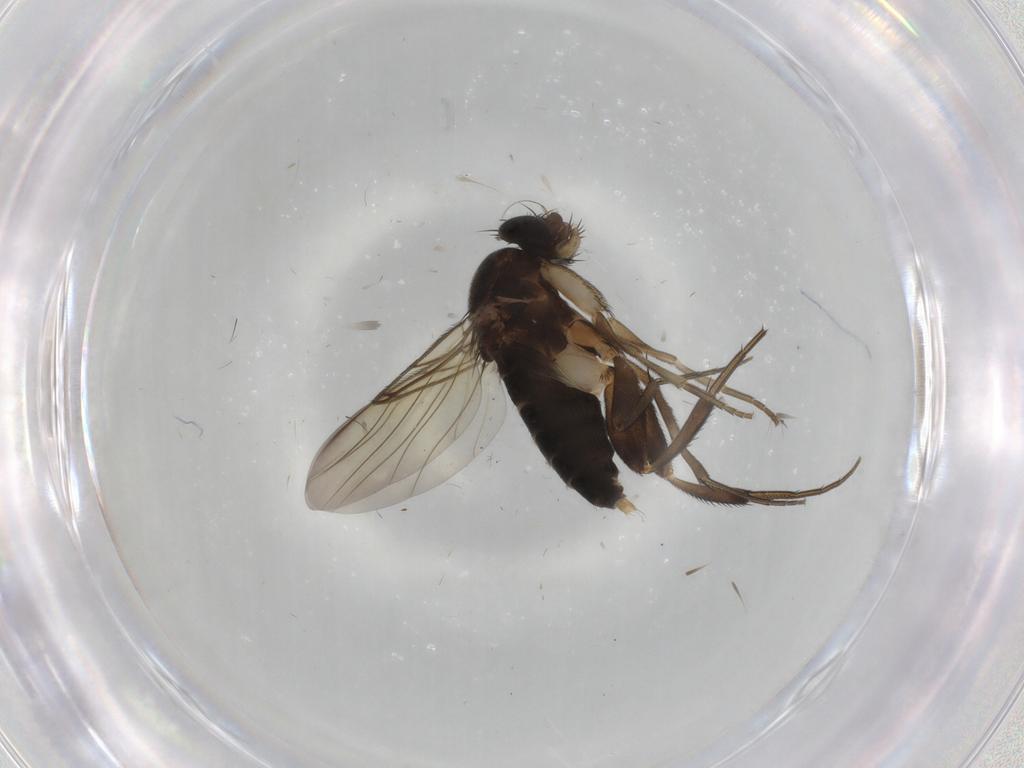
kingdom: Animalia
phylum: Arthropoda
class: Insecta
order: Diptera
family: Phoridae
